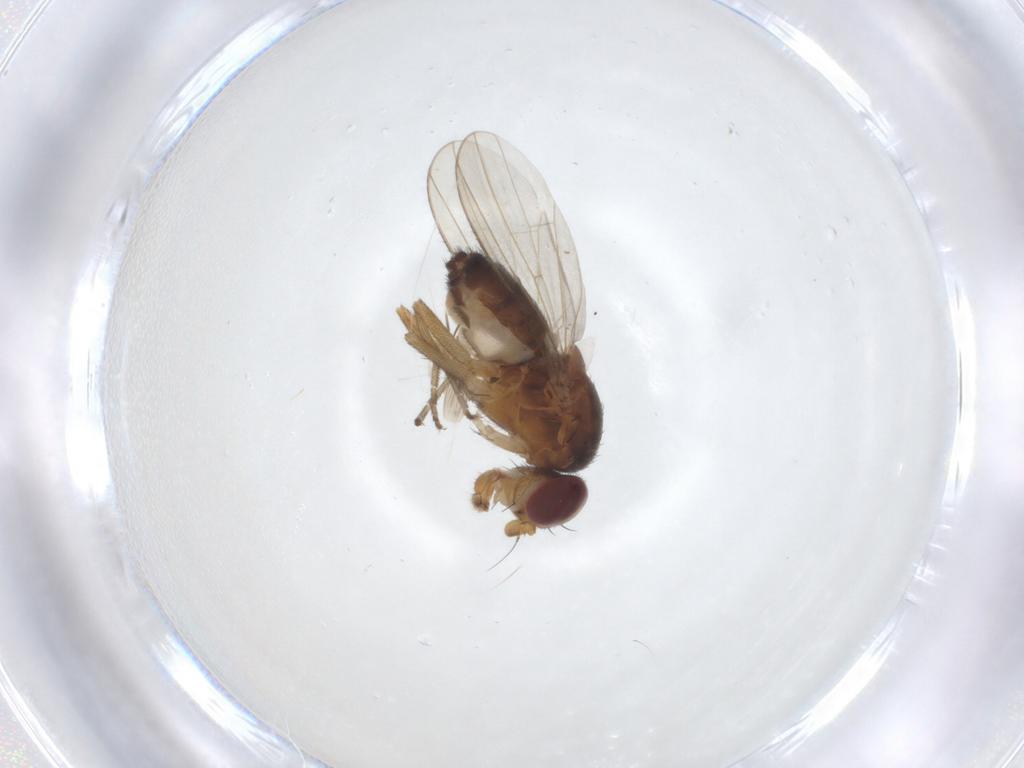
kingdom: Animalia
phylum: Arthropoda
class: Insecta
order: Diptera
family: Heleomyzidae
